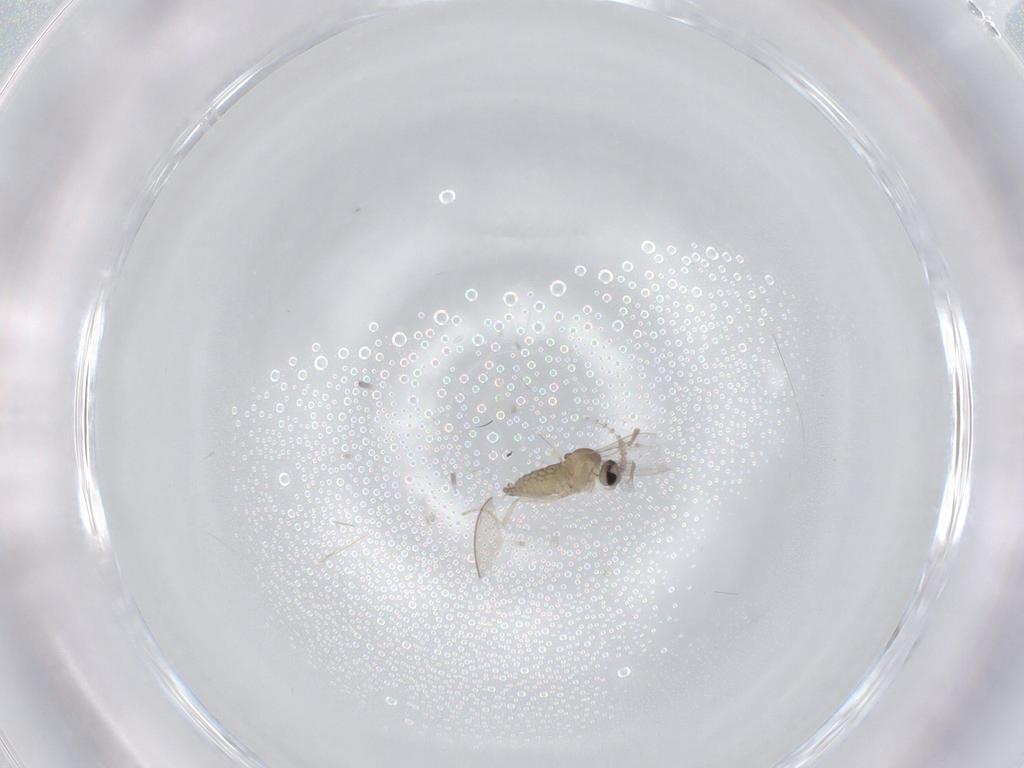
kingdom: Animalia
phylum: Arthropoda
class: Insecta
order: Diptera
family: Cecidomyiidae
